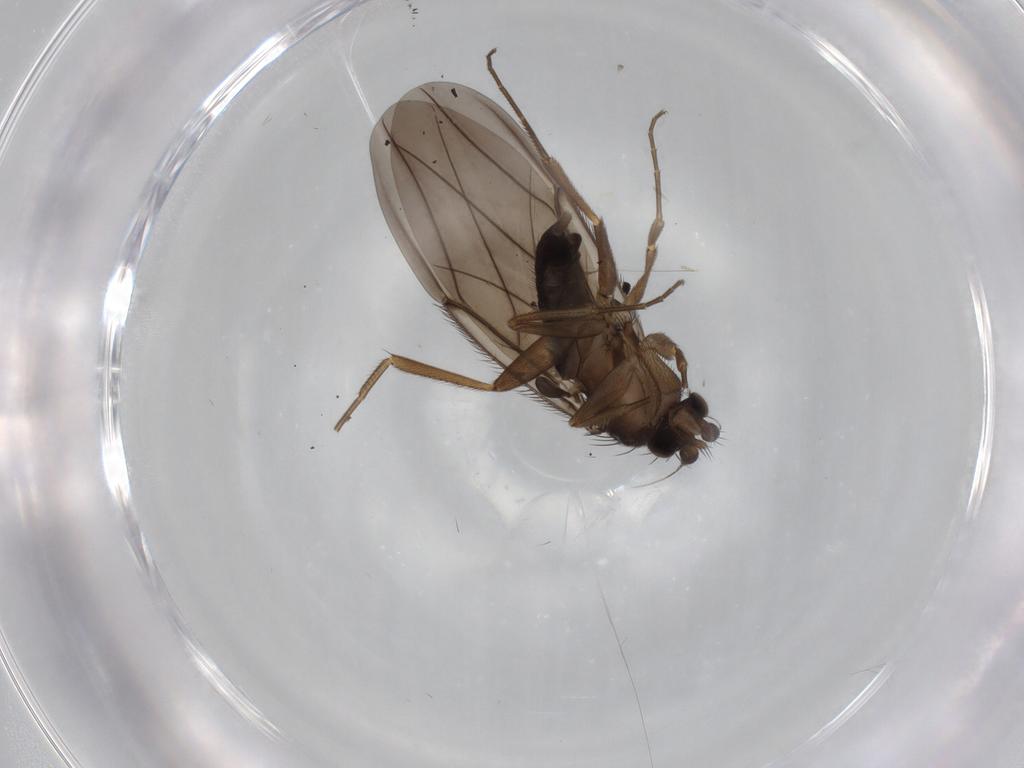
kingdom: Animalia
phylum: Arthropoda
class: Insecta
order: Diptera
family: Phoridae
